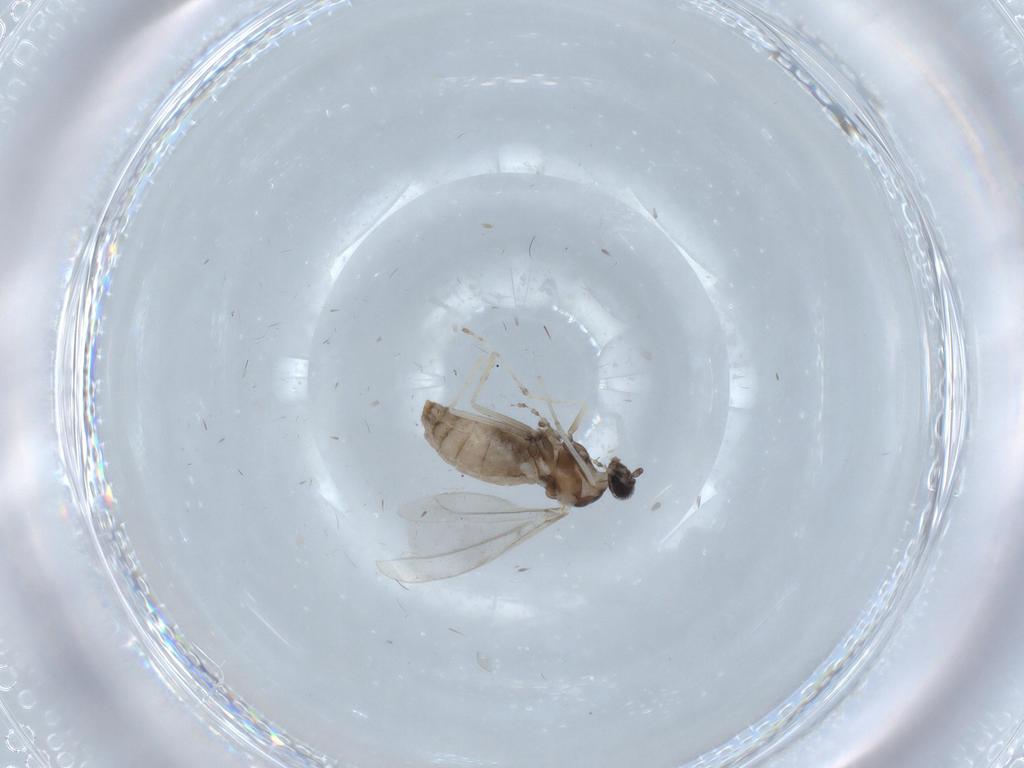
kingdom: Animalia
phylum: Arthropoda
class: Insecta
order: Diptera
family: Cecidomyiidae
